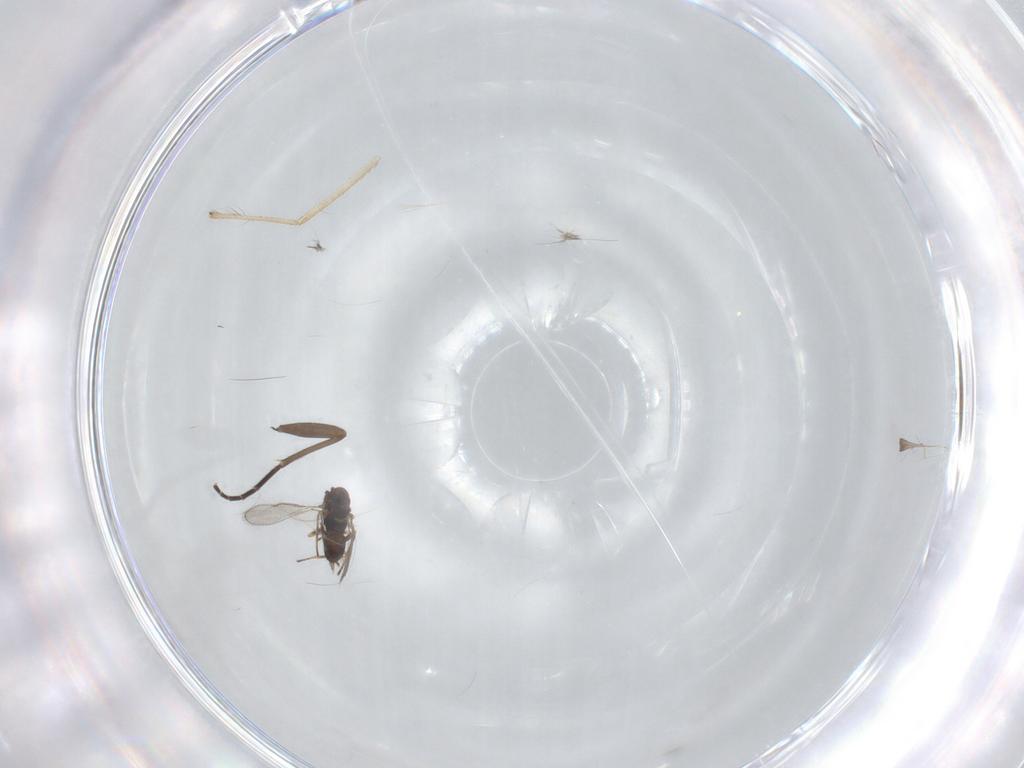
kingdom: Animalia
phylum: Arthropoda
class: Insecta
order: Hymenoptera
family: Eulophidae
